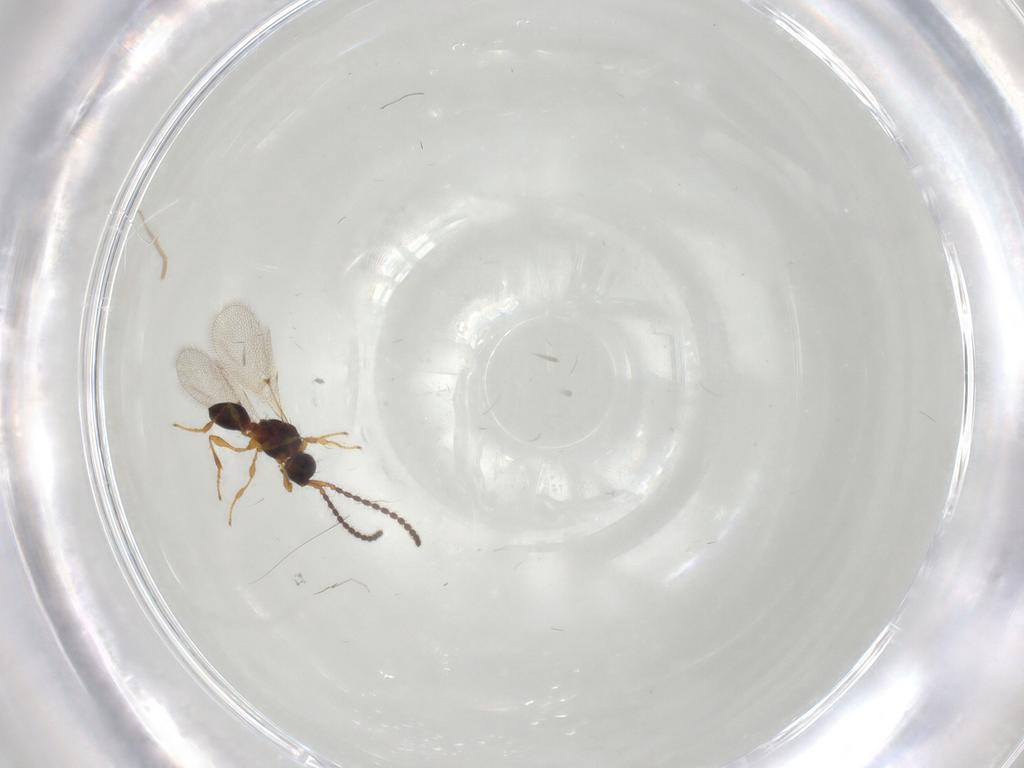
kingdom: Animalia
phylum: Arthropoda
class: Insecta
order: Hymenoptera
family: Diapriidae
